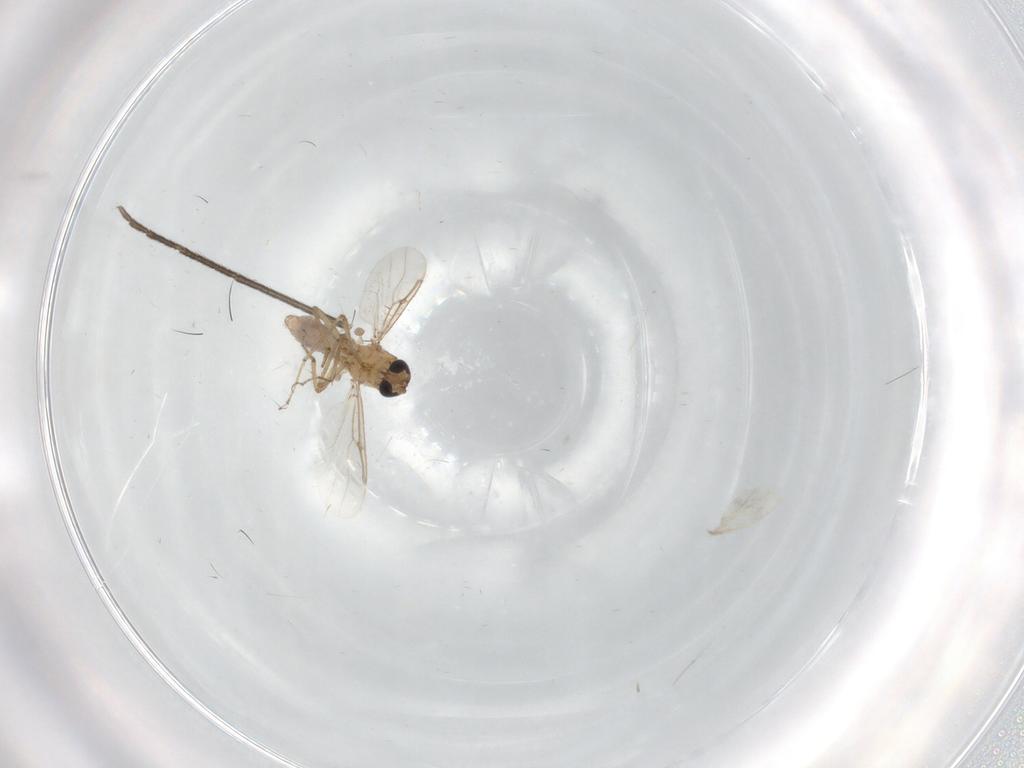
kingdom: Animalia
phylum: Arthropoda
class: Insecta
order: Diptera
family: Mycetophilidae
